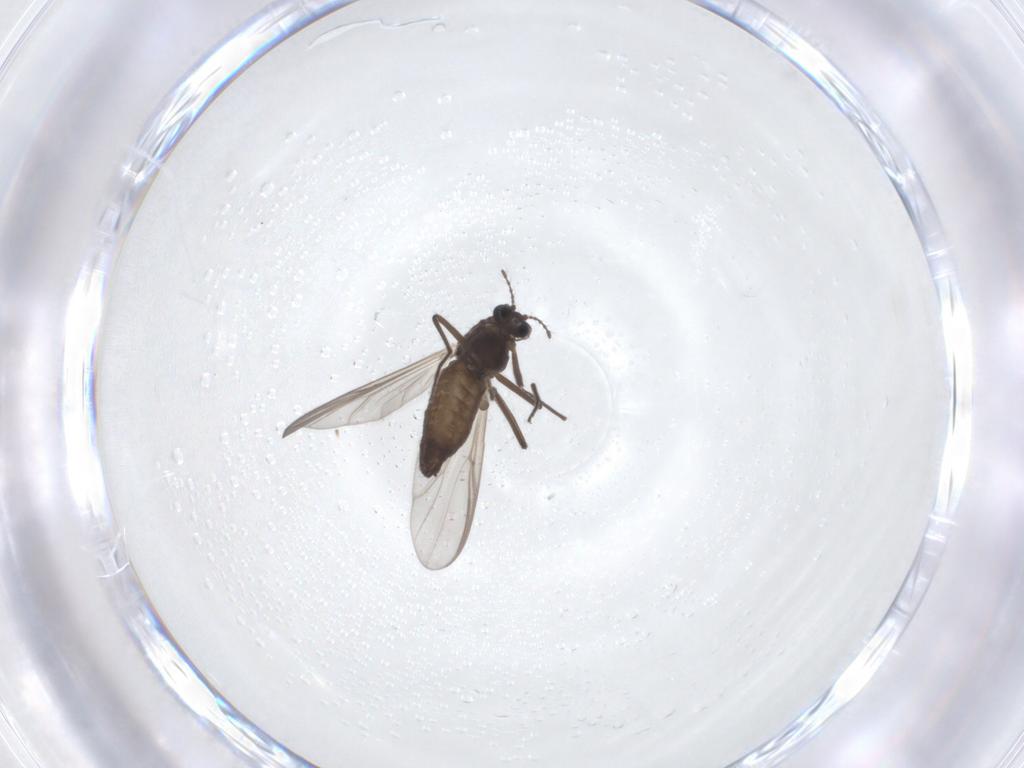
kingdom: Animalia
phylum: Arthropoda
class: Insecta
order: Diptera
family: Chironomidae
